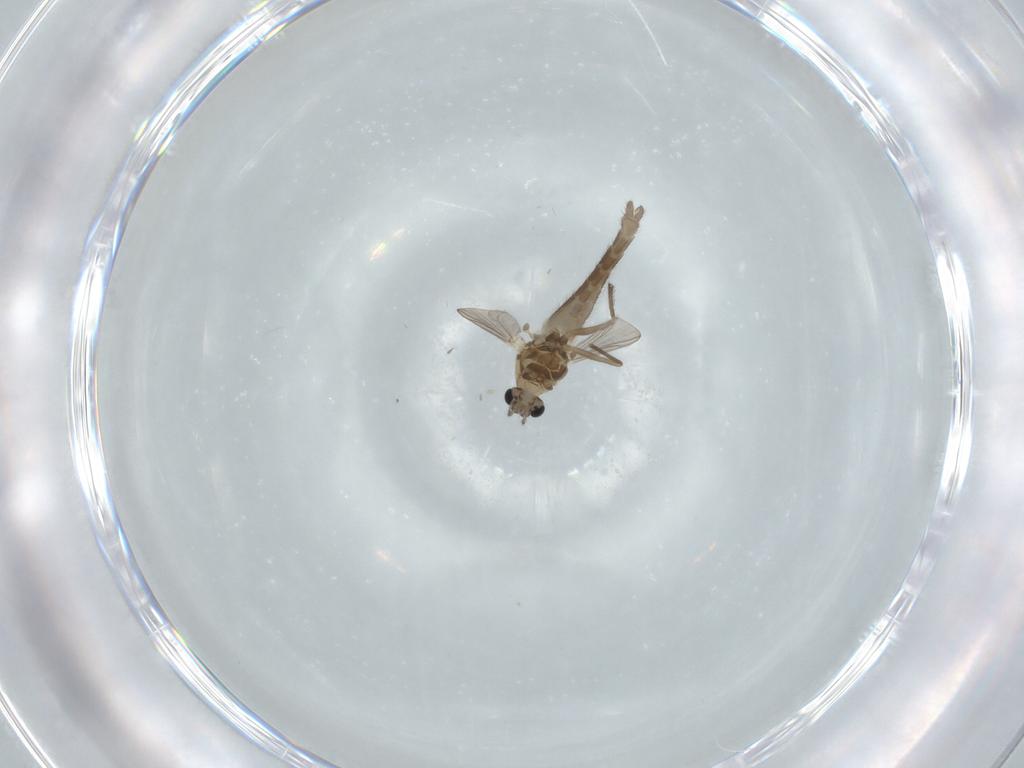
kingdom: Animalia
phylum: Arthropoda
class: Insecta
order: Diptera
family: Chironomidae
